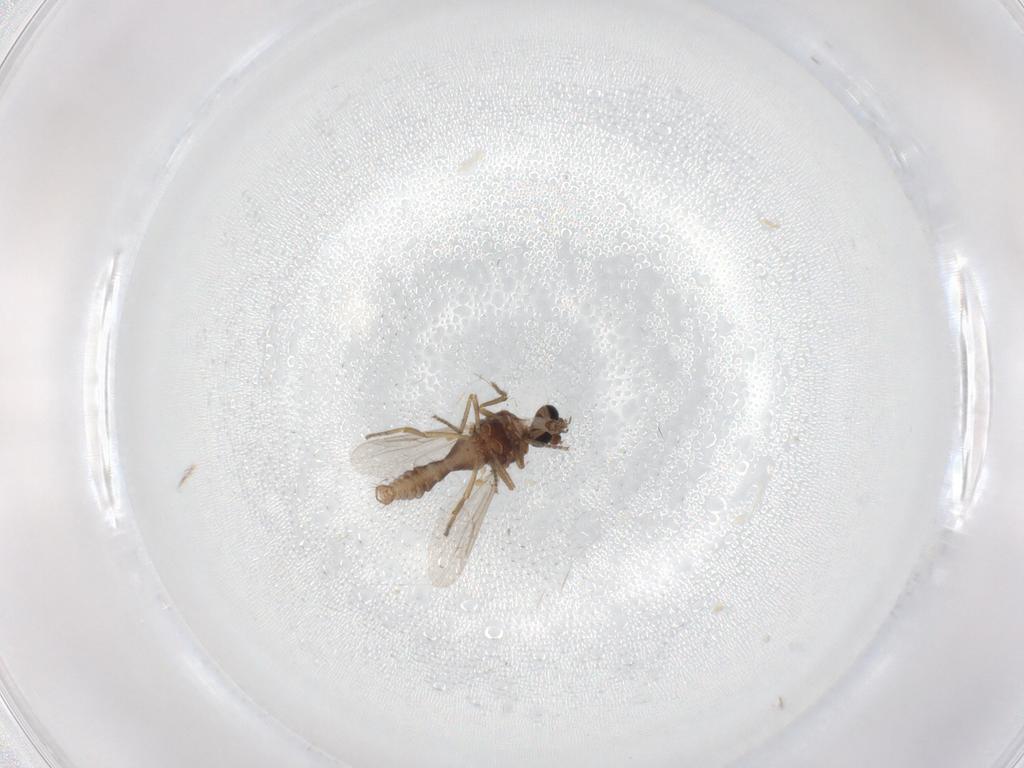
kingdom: Animalia
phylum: Arthropoda
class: Insecta
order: Diptera
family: Ceratopogonidae
